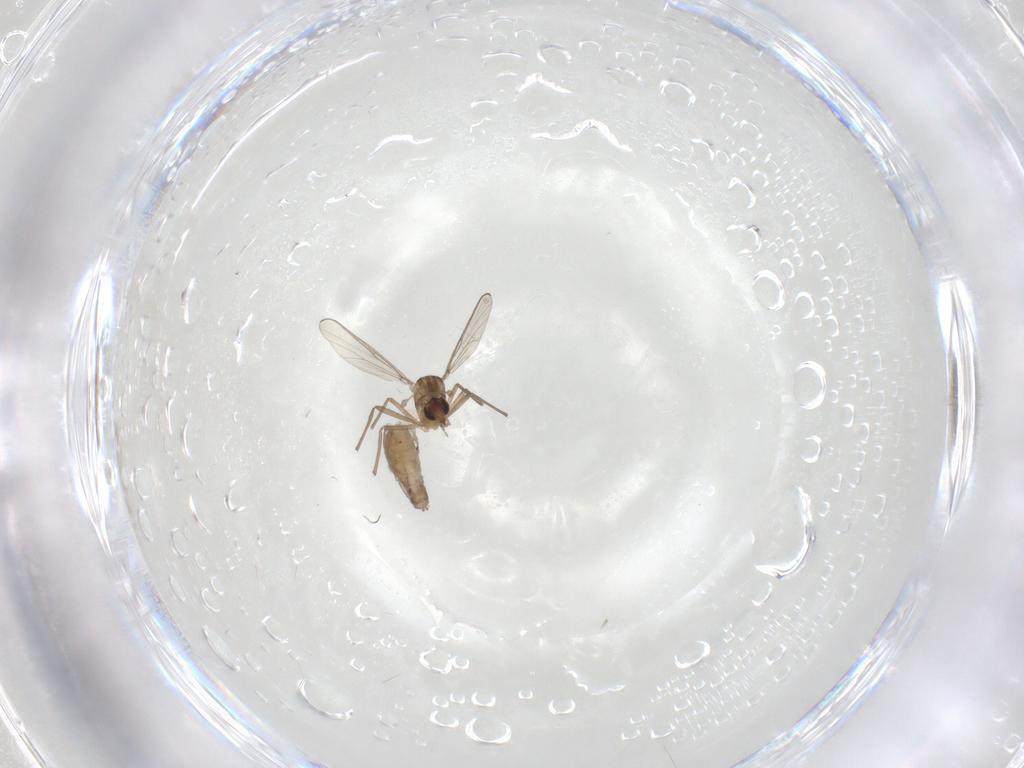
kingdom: Animalia
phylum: Arthropoda
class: Insecta
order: Diptera
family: Chironomidae
